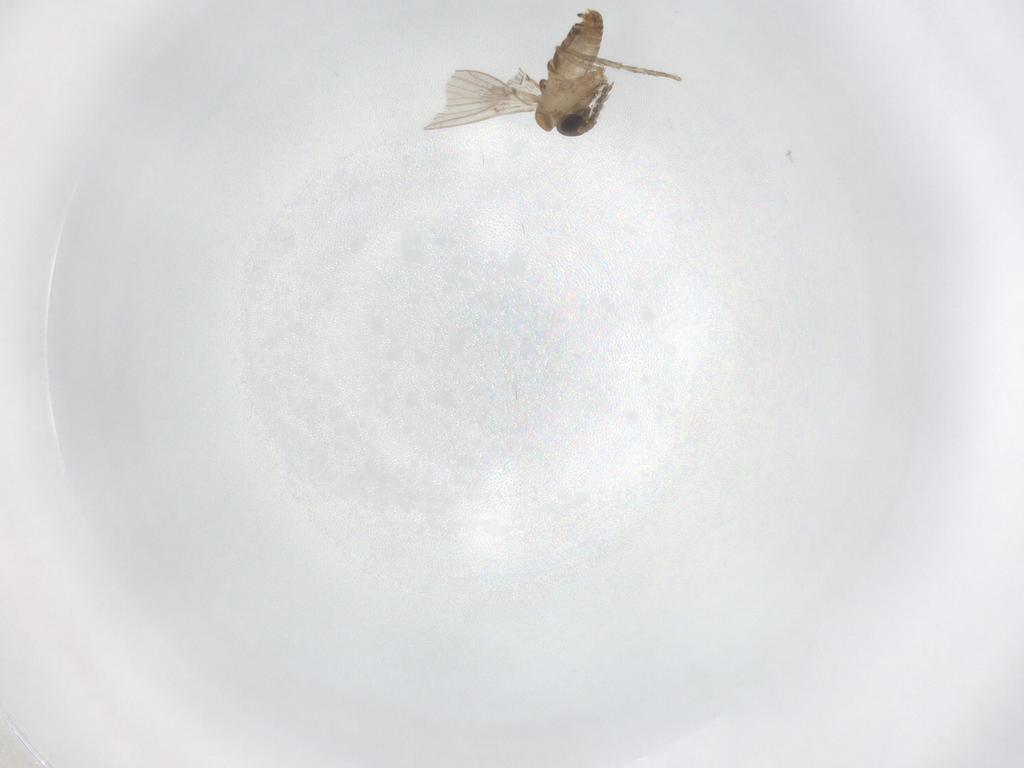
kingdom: Animalia
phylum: Arthropoda
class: Insecta
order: Diptera
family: Psychodidae
